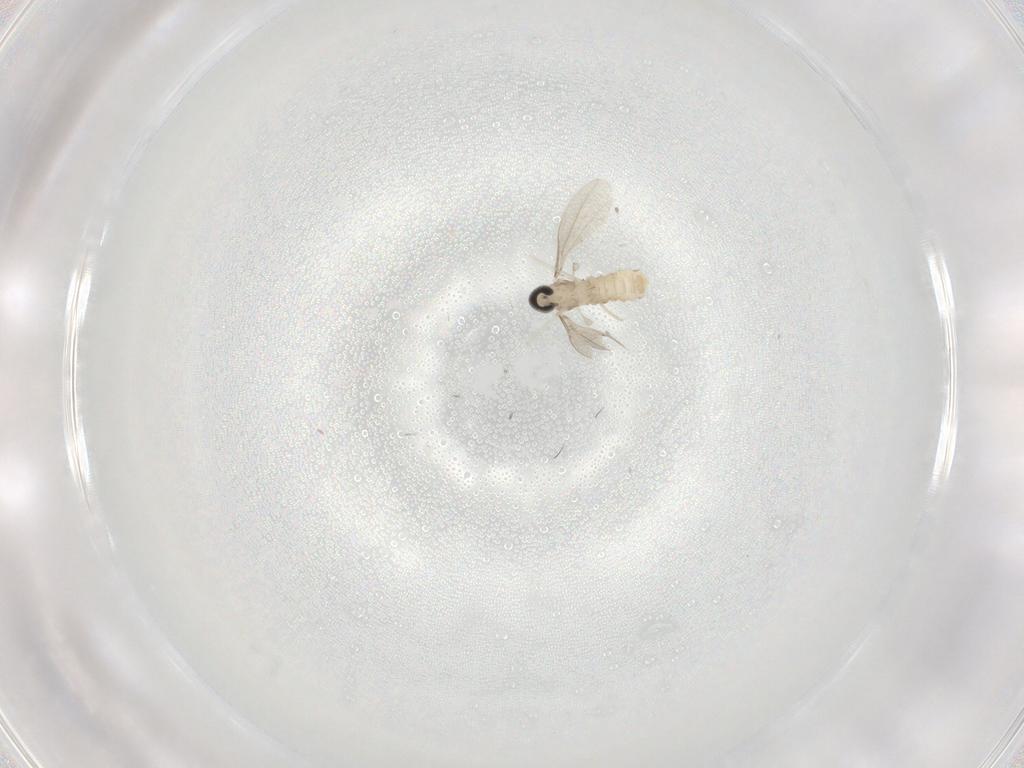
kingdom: Animalia
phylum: Arthropoda
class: Insecta
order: Diptera
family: Cecidomyiidae
